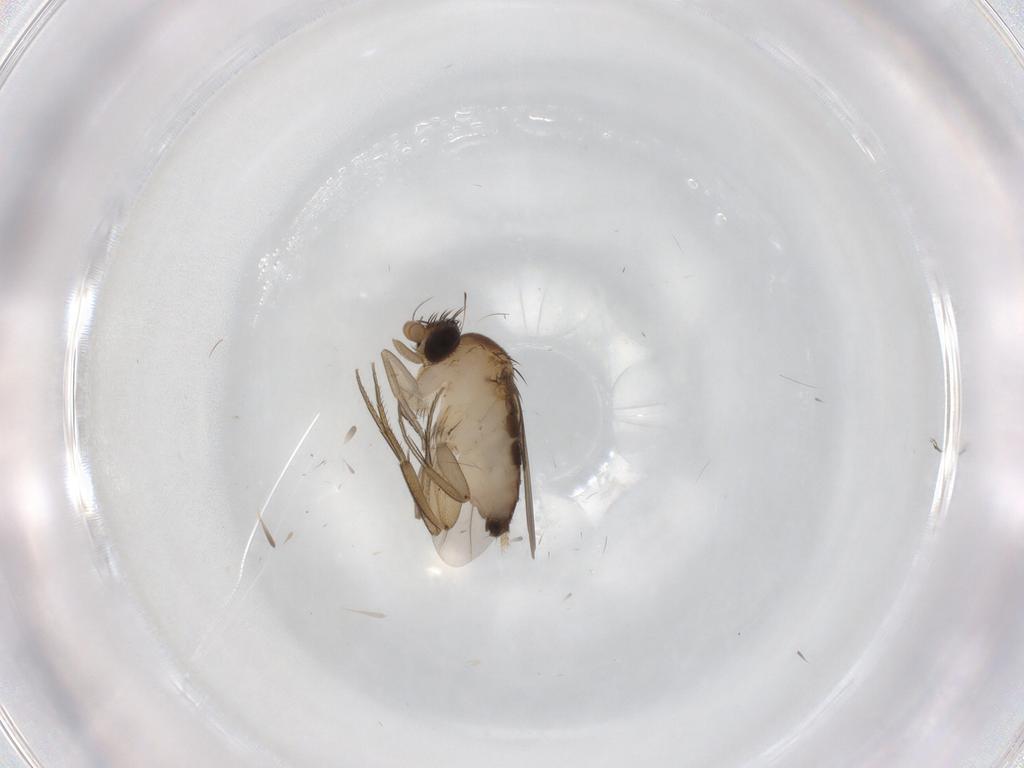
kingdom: Animalia
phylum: Arthropoda
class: Insecta
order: Diptera
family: Phoridae
